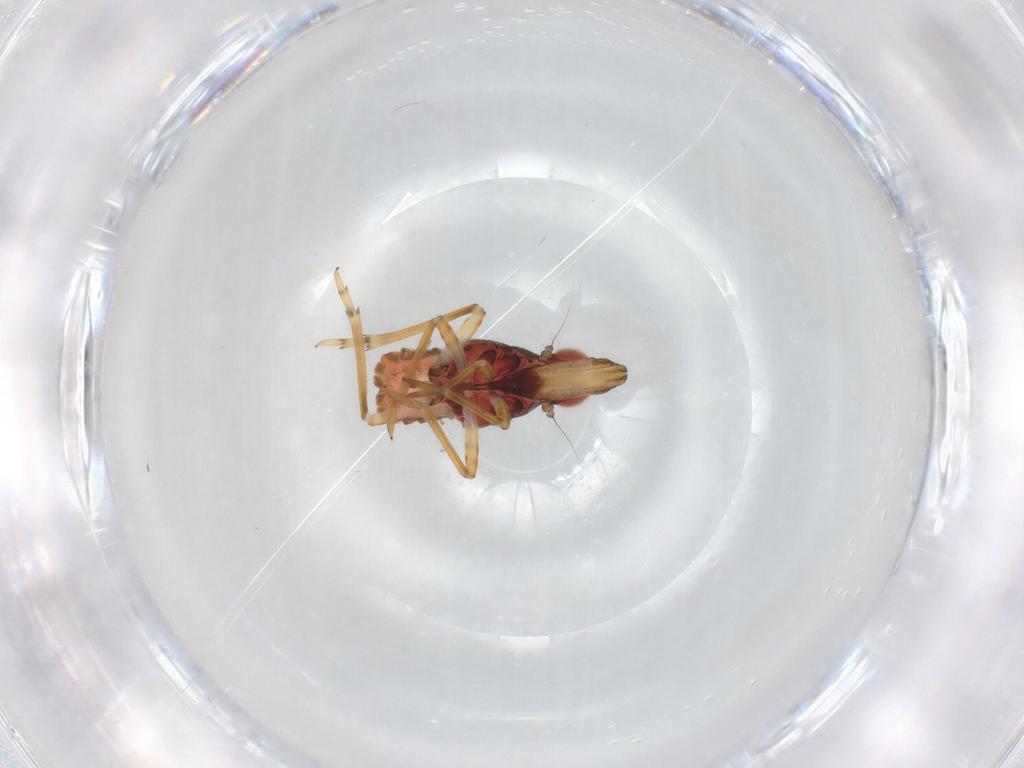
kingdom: Animalia
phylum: Arthropoda
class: Insecta
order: Hemiptera
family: Dictyopharidae
